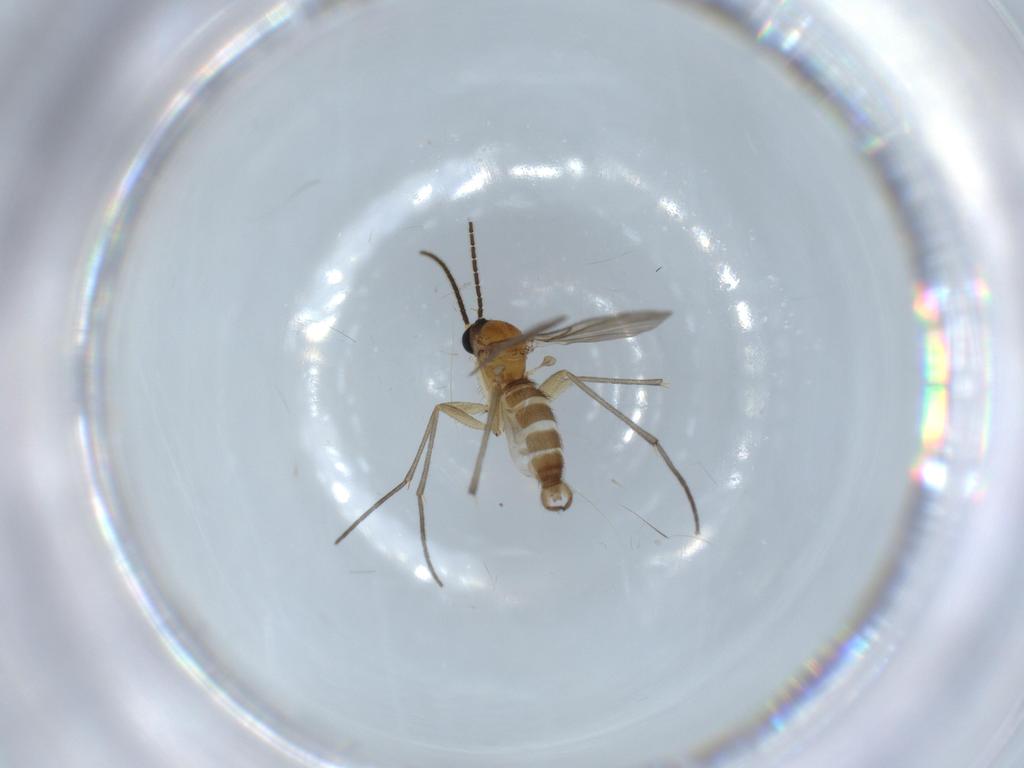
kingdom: Animalia
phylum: Arthropoda
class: Insecta
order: Diptera
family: Sciaridae
